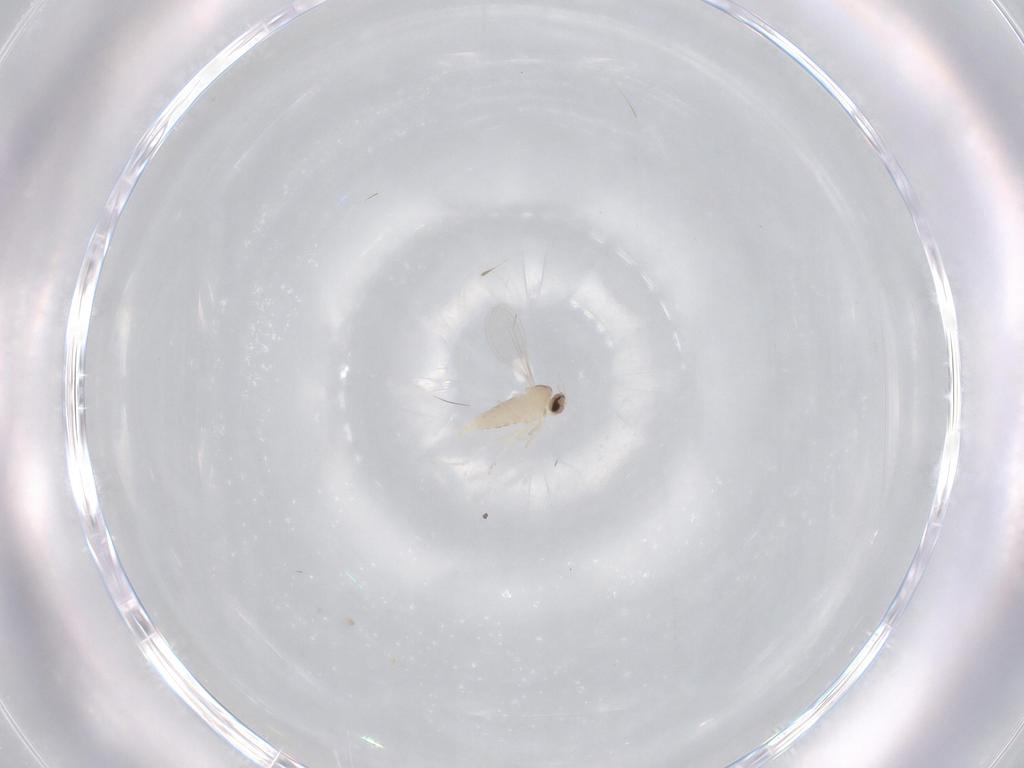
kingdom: Animalia
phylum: Arthropoda
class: Insecta
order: Diptera
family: Cecidomyiidae
